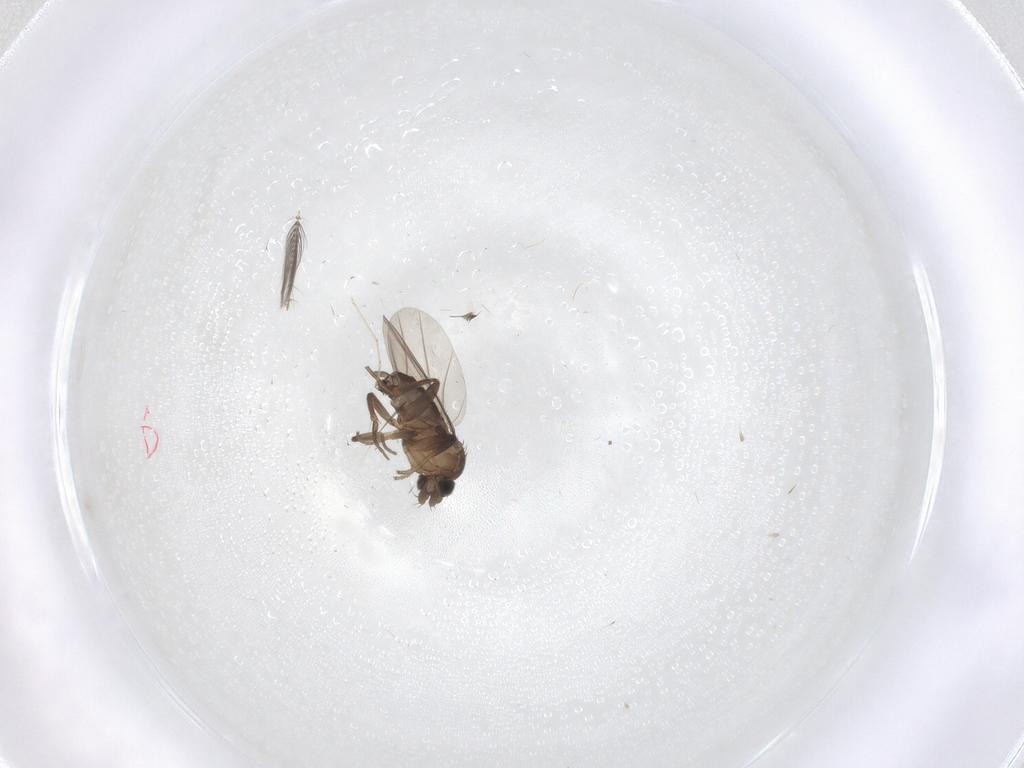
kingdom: Animalia
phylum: Arthropoda
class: Insecta
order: Diptera
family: Phoridae
